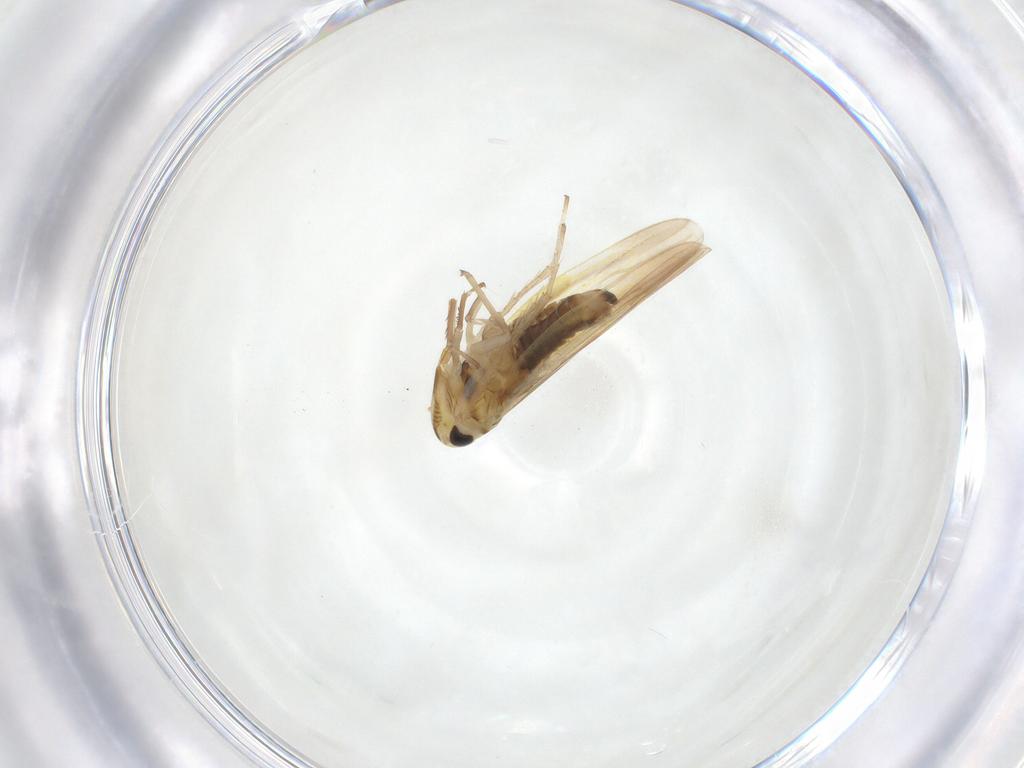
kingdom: Animalia
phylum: Arthropoda
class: Insecta
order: Hemiptera
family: Cicadellidae
